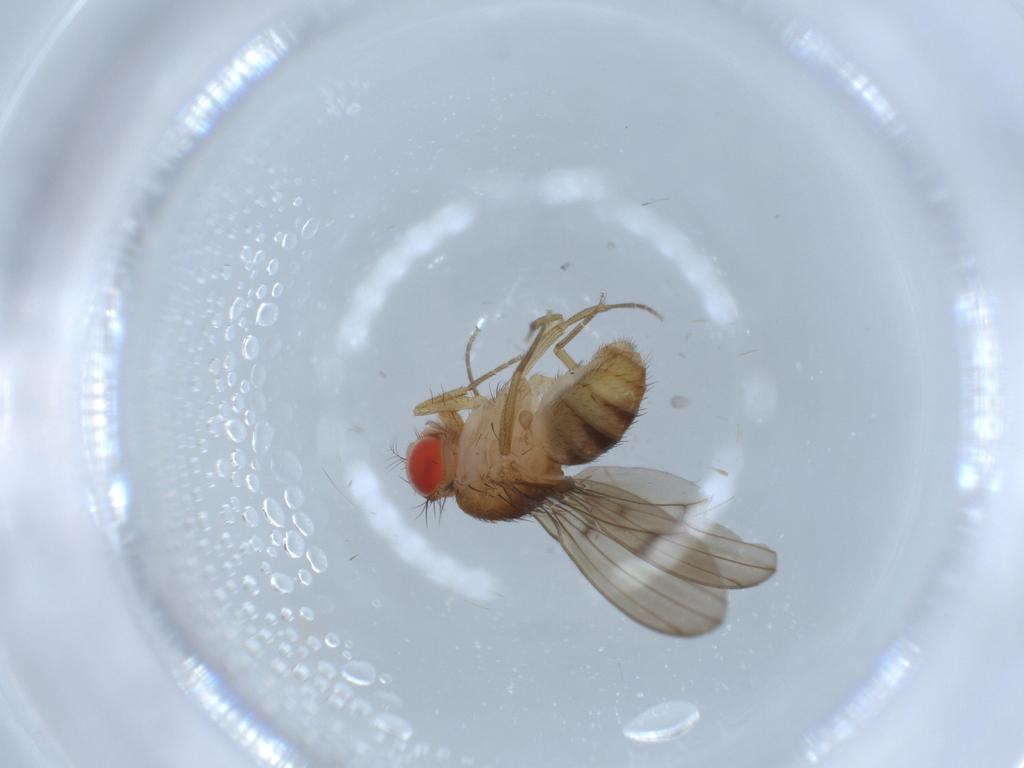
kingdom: Animalia
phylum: Arthropoda
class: Insecta
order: Diptera
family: Drosophilidae
